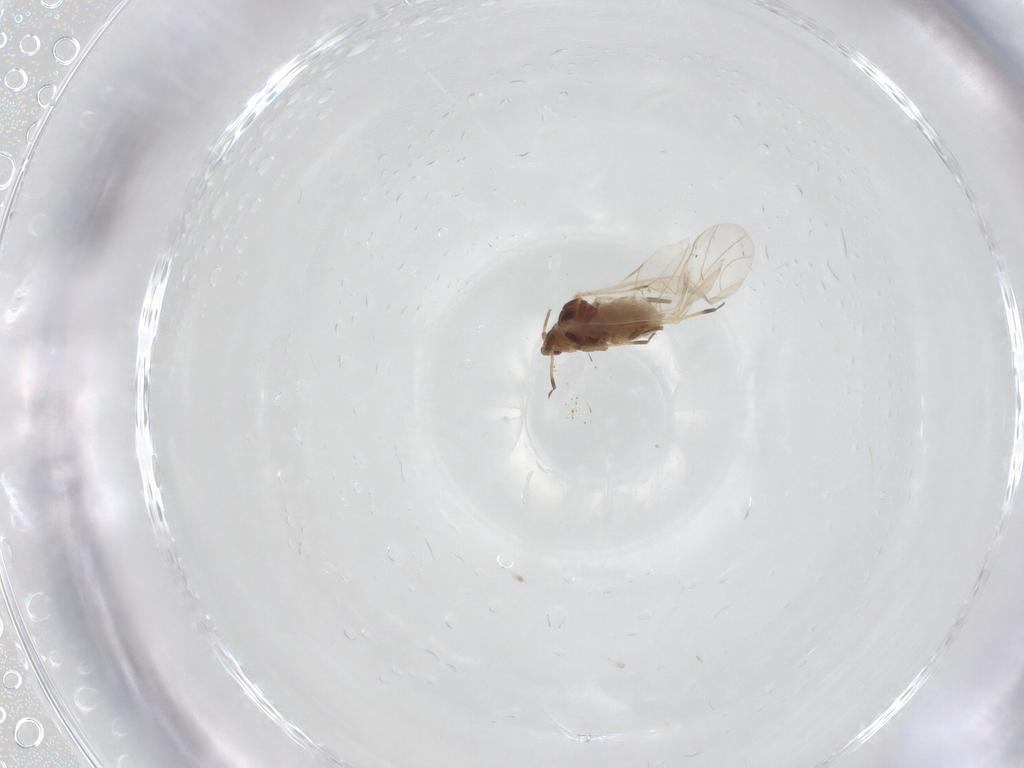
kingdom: Animalia
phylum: Arthropoda
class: Insecta
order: Hemiptera
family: Aphididae
